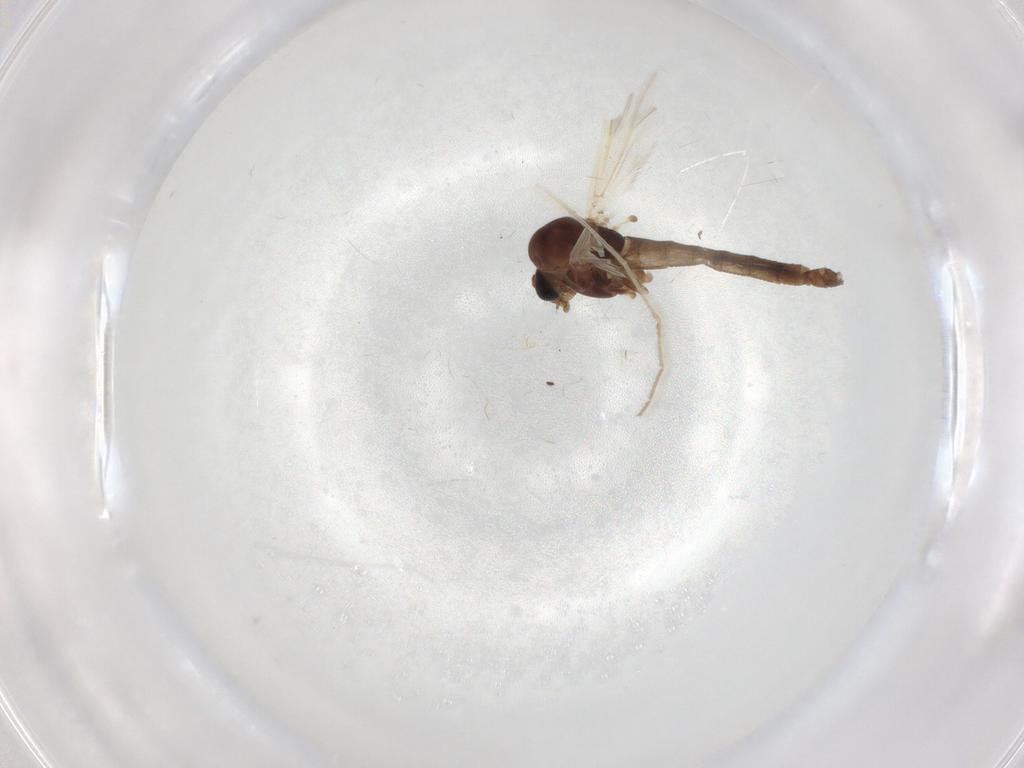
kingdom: Animalia
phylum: Arthropoda
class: Insecta
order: Diptera
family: Chironomidae
